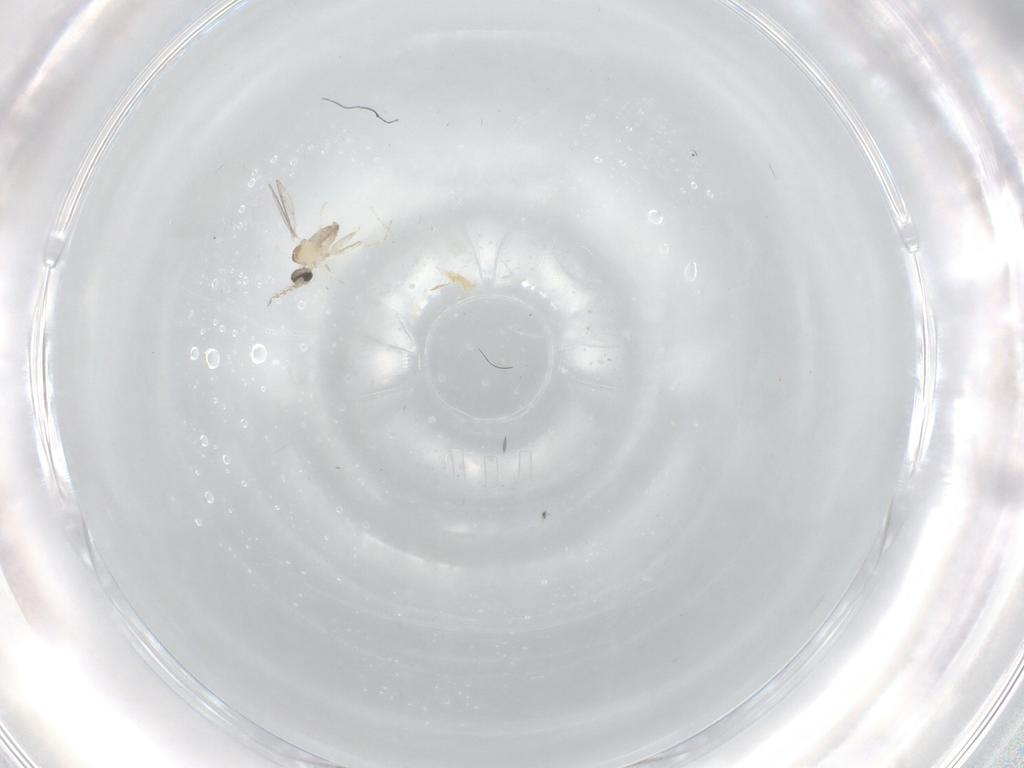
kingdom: Animalia
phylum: Arthropoda
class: Insecta
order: Diptera
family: Cecidomyiidae
